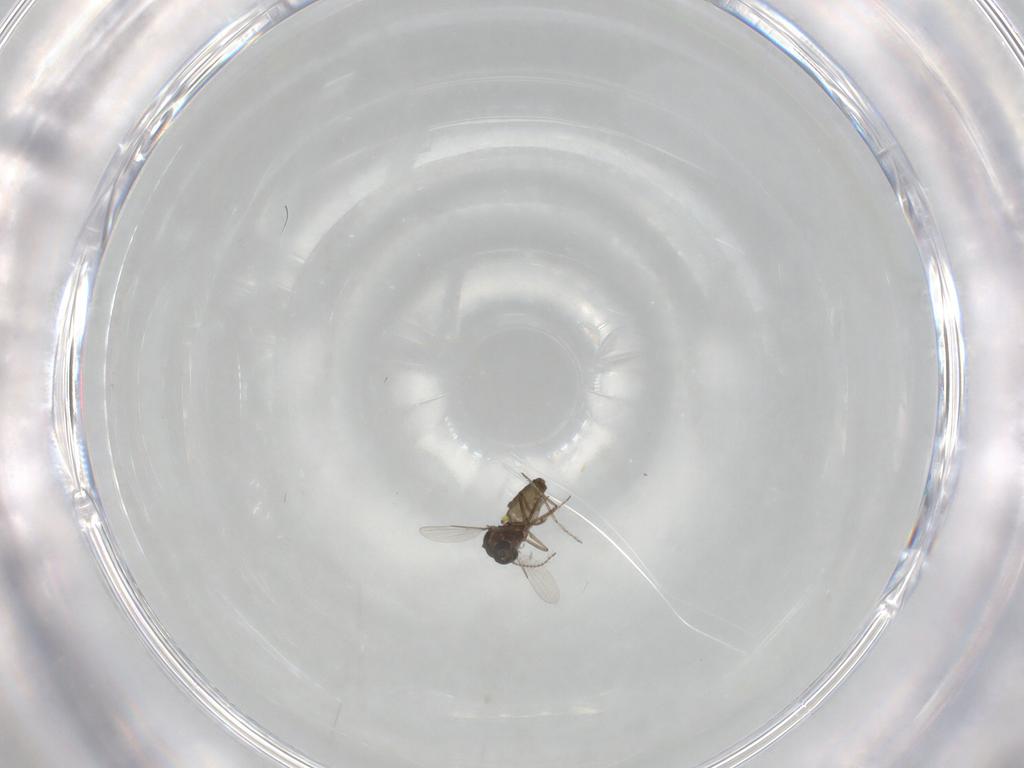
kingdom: Animalia
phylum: Arthropoda
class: Insecta
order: Diptera
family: Ceratopogonidae
